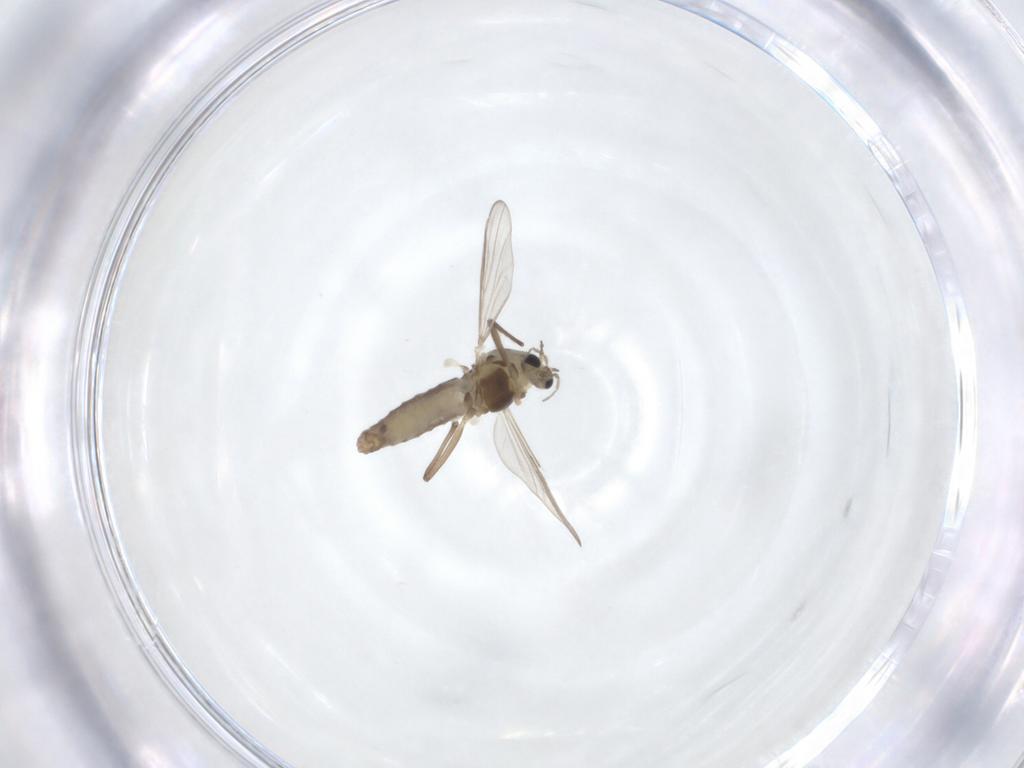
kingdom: Animalia
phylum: Arthropoda
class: Insecta
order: Diptera
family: Chironomidae
